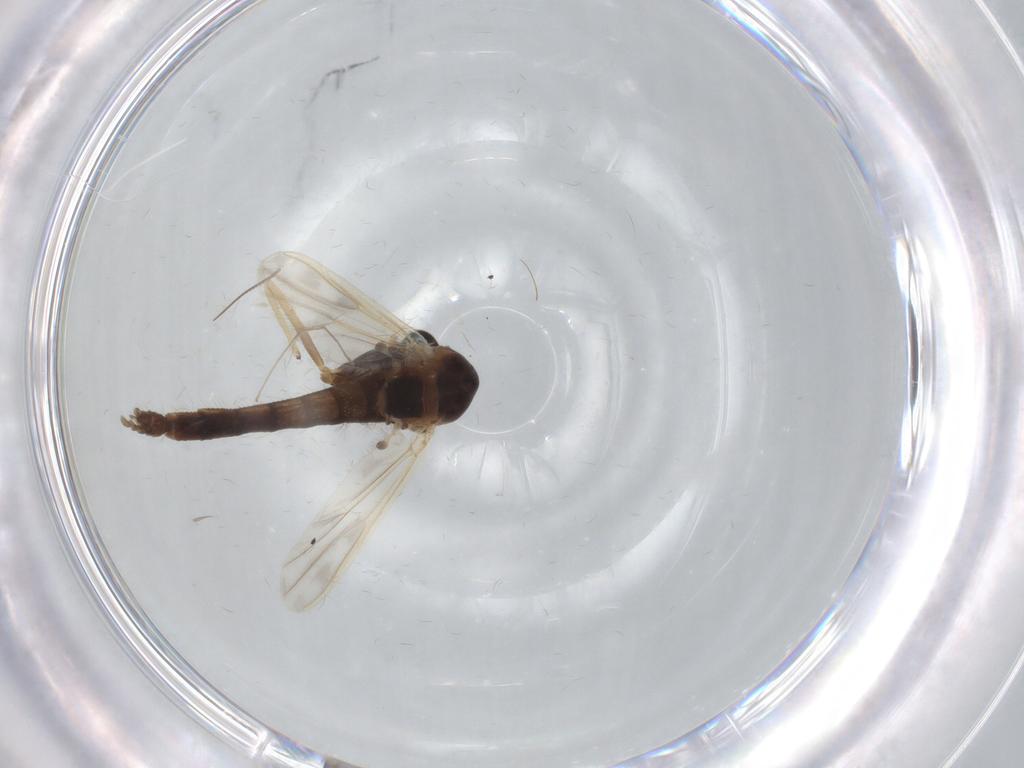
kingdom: Animalia
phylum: Arthropoda
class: Insecta
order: Diptera
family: Chironomidae
